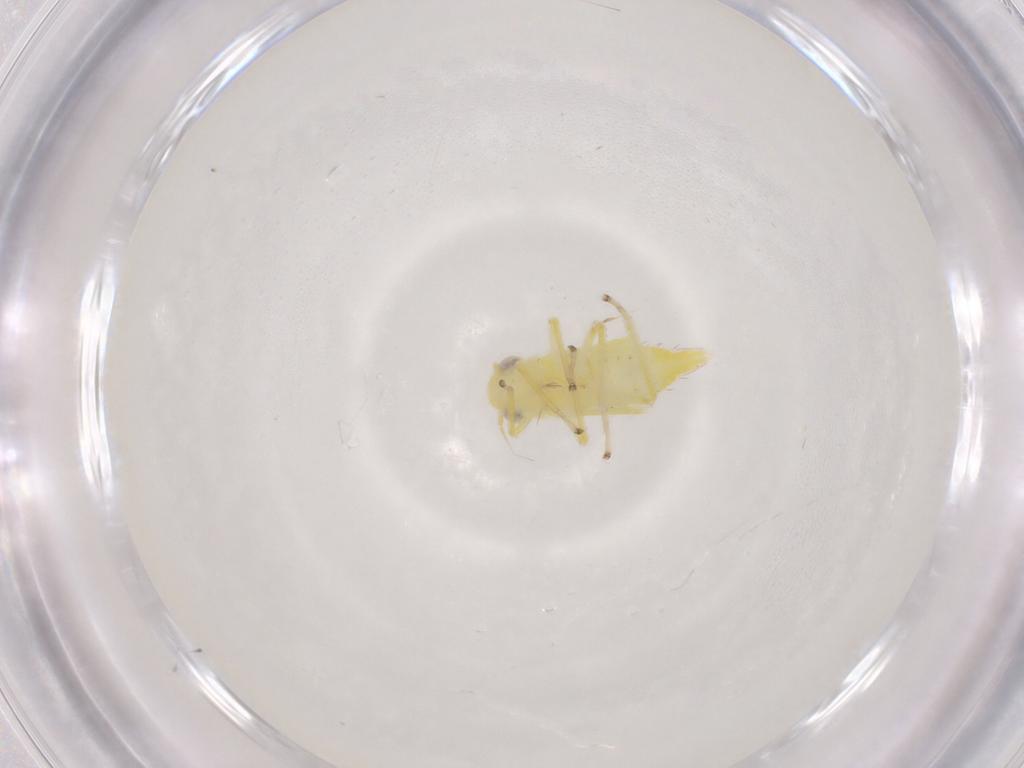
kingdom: Animalia
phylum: Arthropoda
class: Insecta
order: Hemiptera
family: Cicadellidae
